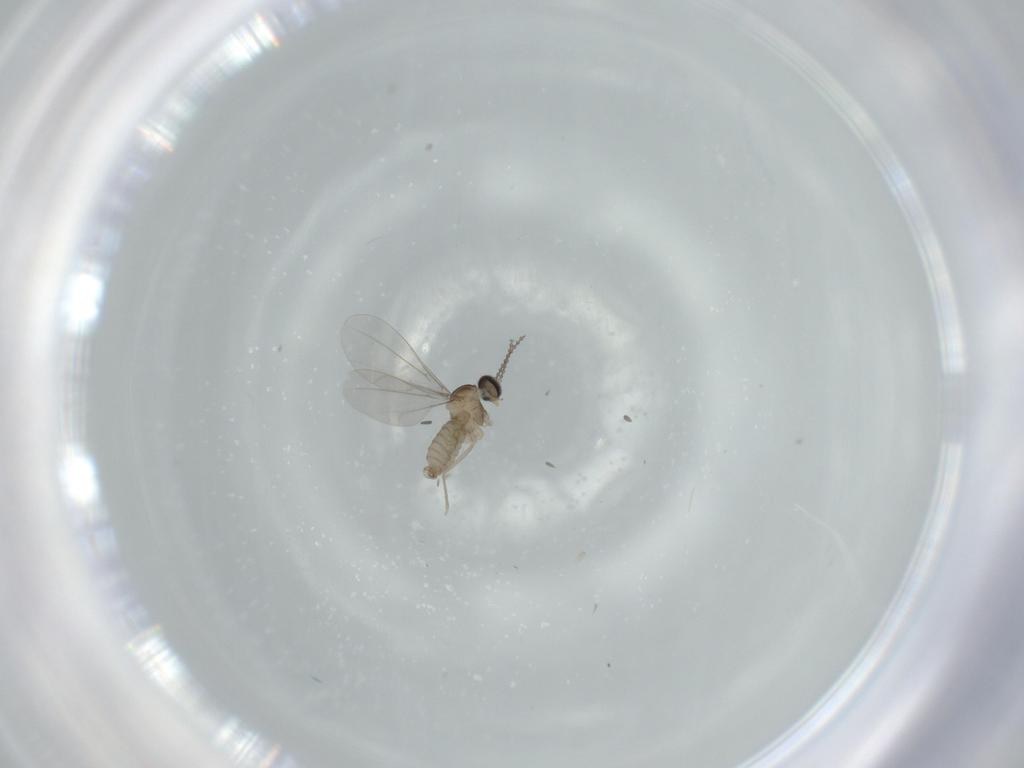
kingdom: Animalia
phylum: Arthropoda
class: Insecta
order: Diptera
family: Cecidomyiidae
